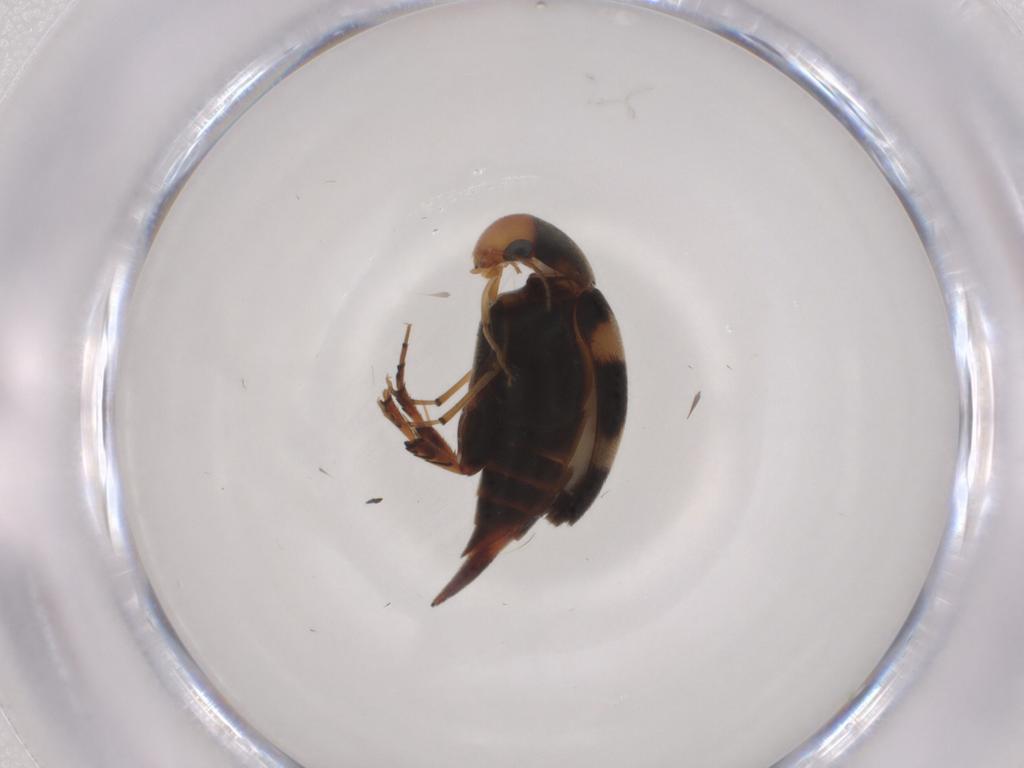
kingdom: Animalia
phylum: Arthropoda
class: Insecta
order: Coleoptera
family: Mordellidae
